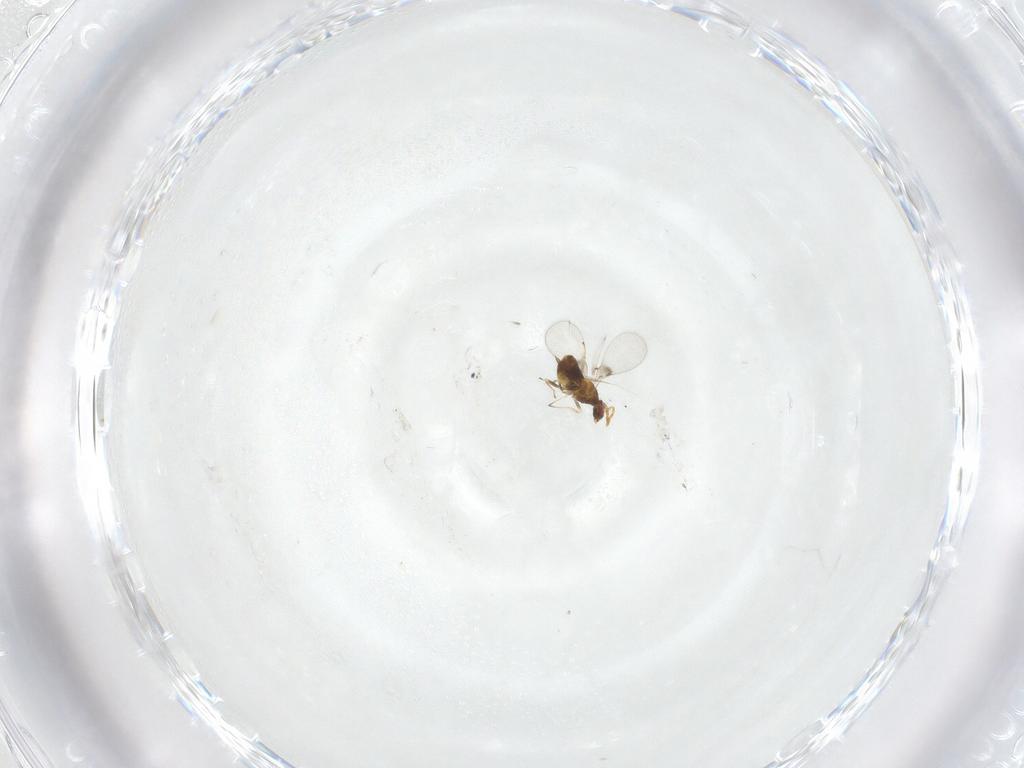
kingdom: Animalia
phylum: Arthropoda
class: Insecta
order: Hymenoptera
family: Trichogrammatidae
